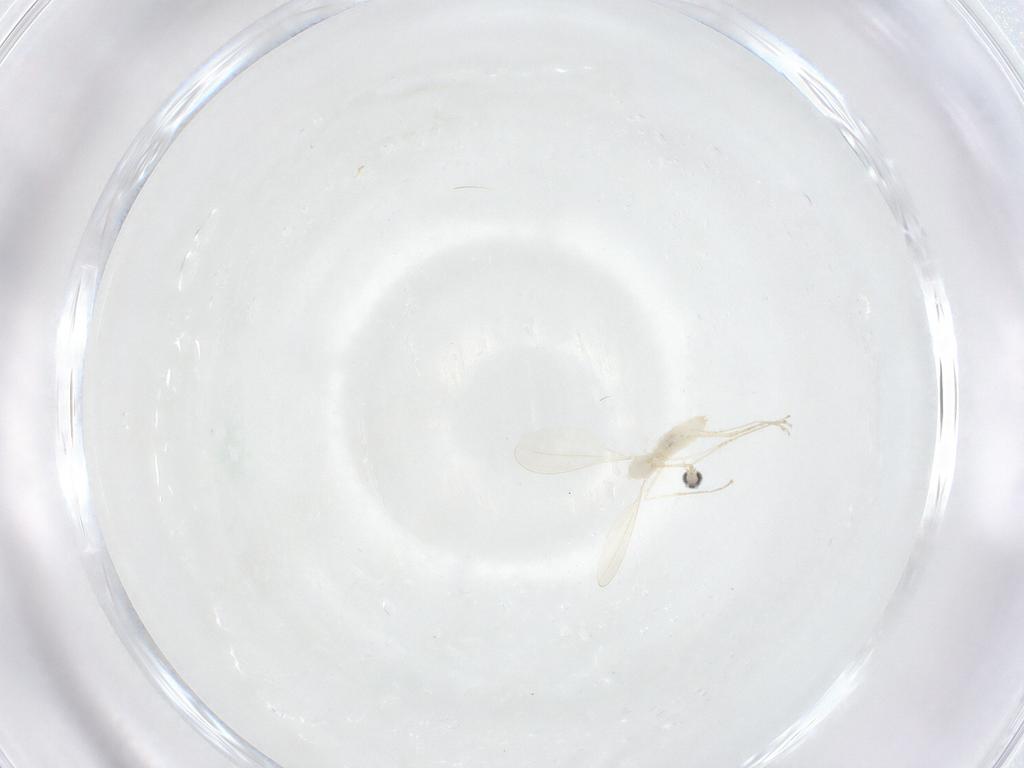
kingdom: Animalia
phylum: Arthropoda
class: Insecta
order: Diptera
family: Cecidomyiidae
